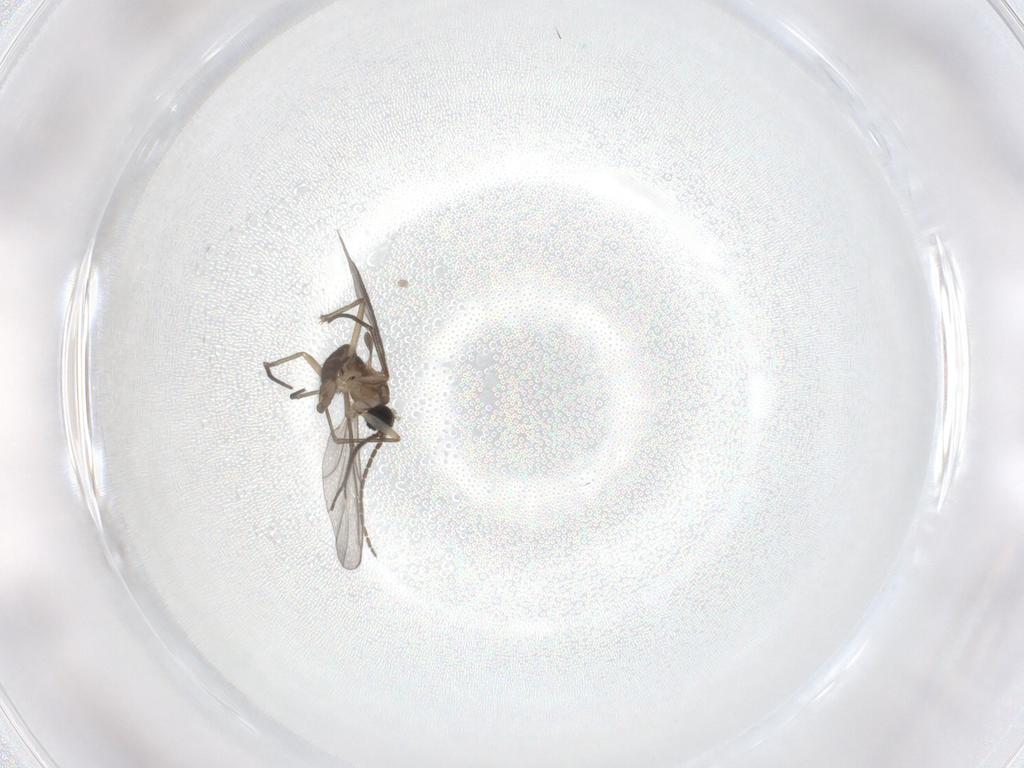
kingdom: Animalia
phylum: Arthropoda
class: Insecta
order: Diptera
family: Sciaridae
